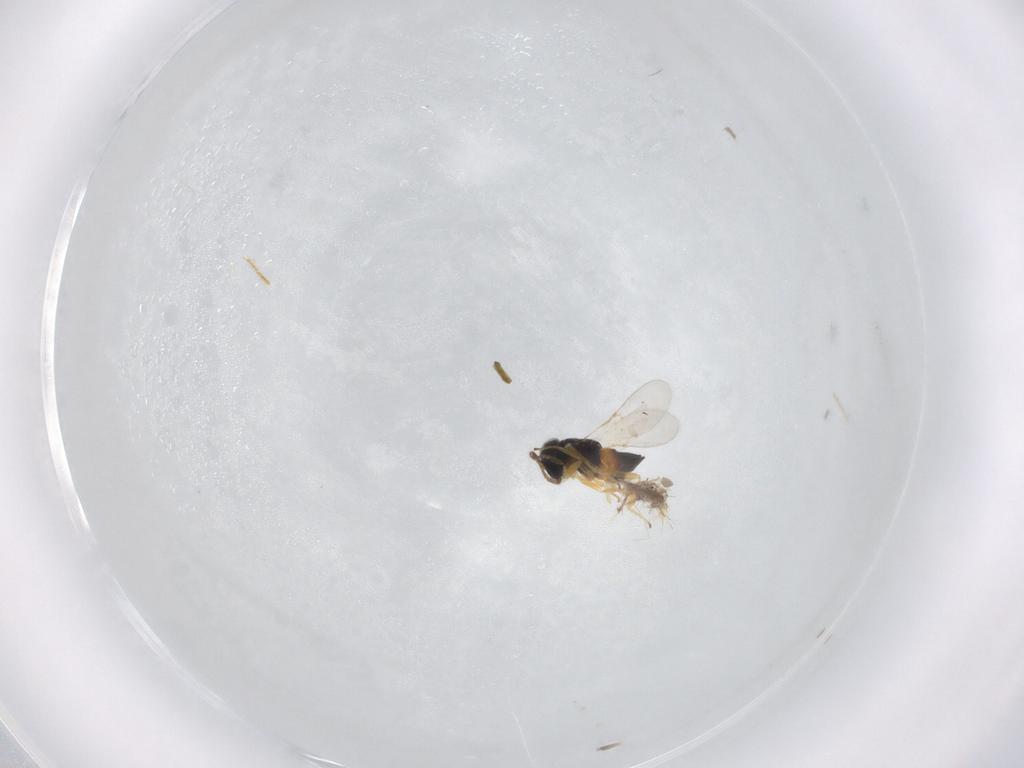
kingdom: Animalia
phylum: Arthropoda
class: Insecta
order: Hymenoptera
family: Encyrtidae
